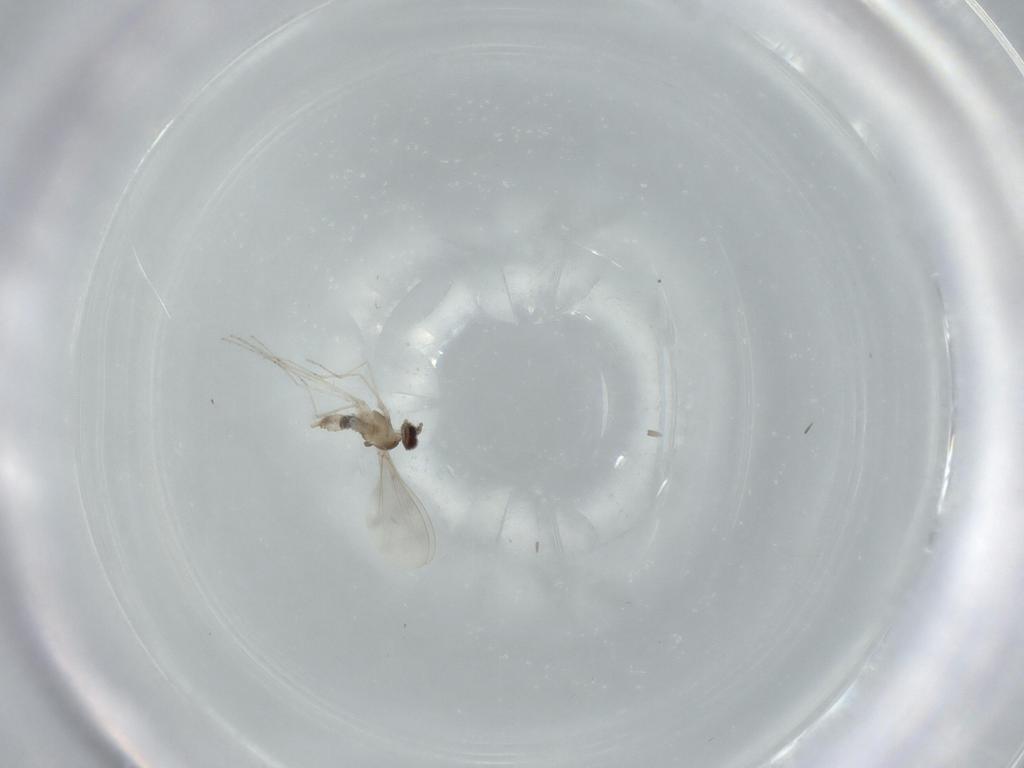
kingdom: Animalia
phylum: Arthropoda
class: Insecta
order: Diptera
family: Cecidomyiidae
